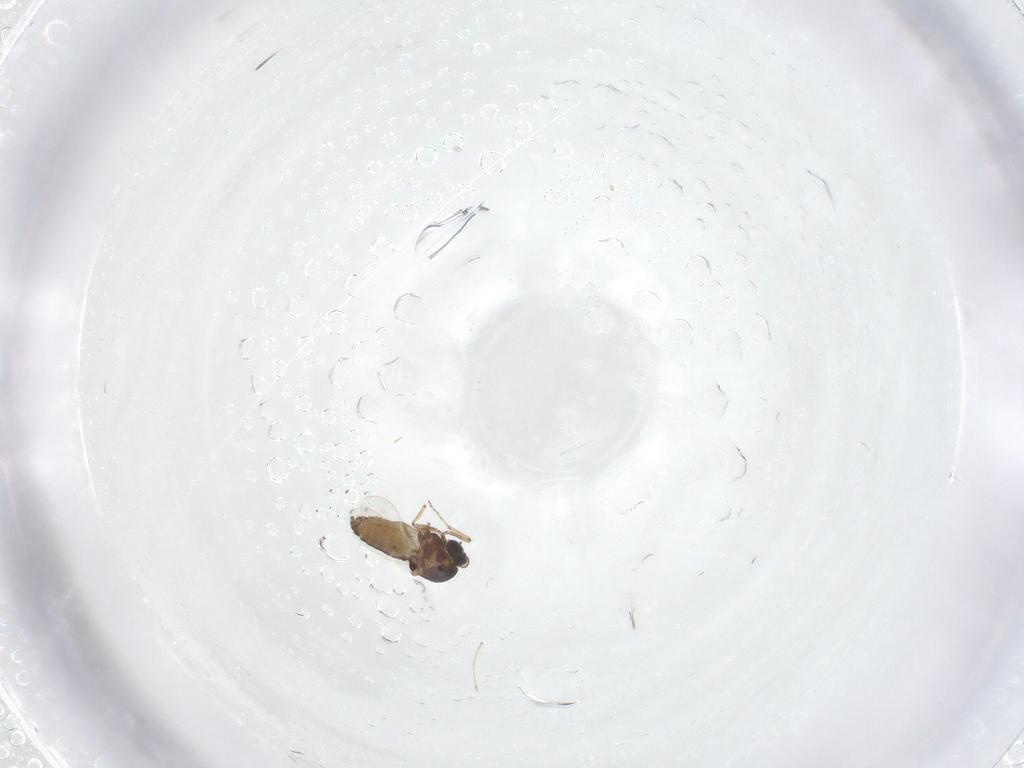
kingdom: Animalia
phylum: Arthropoda
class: Insecta
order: Diptera
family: Ceratopogonidae
